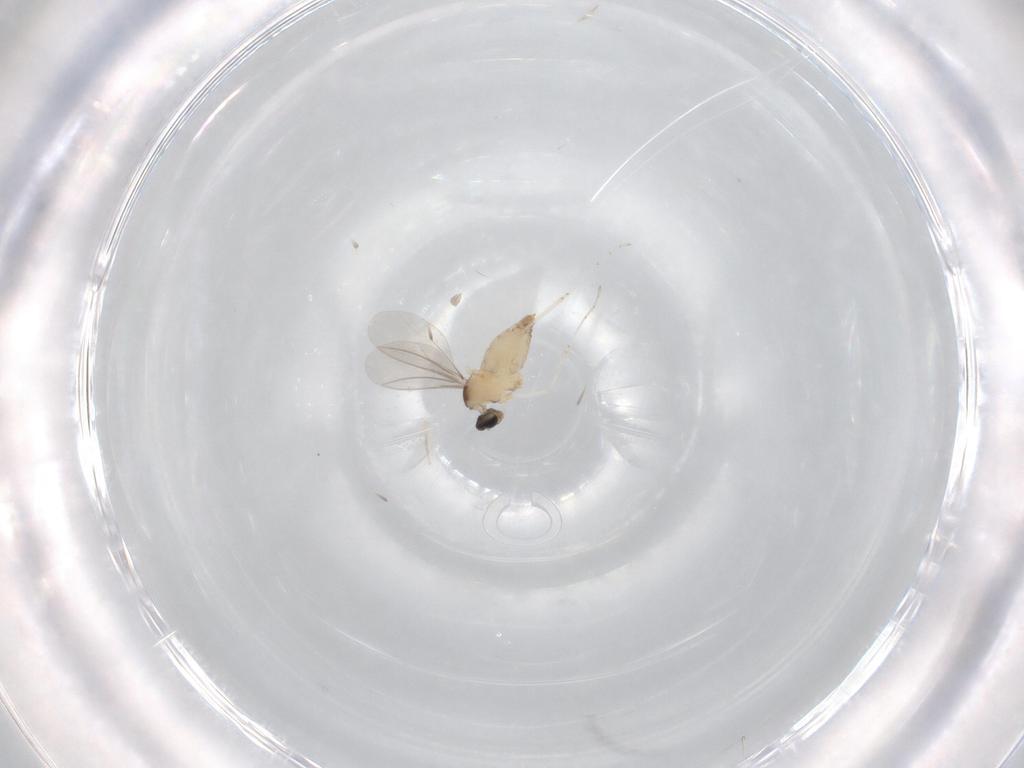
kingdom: Animalia
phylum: Arthropoda
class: Insecta
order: Diptera
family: Cecidomyiidae
